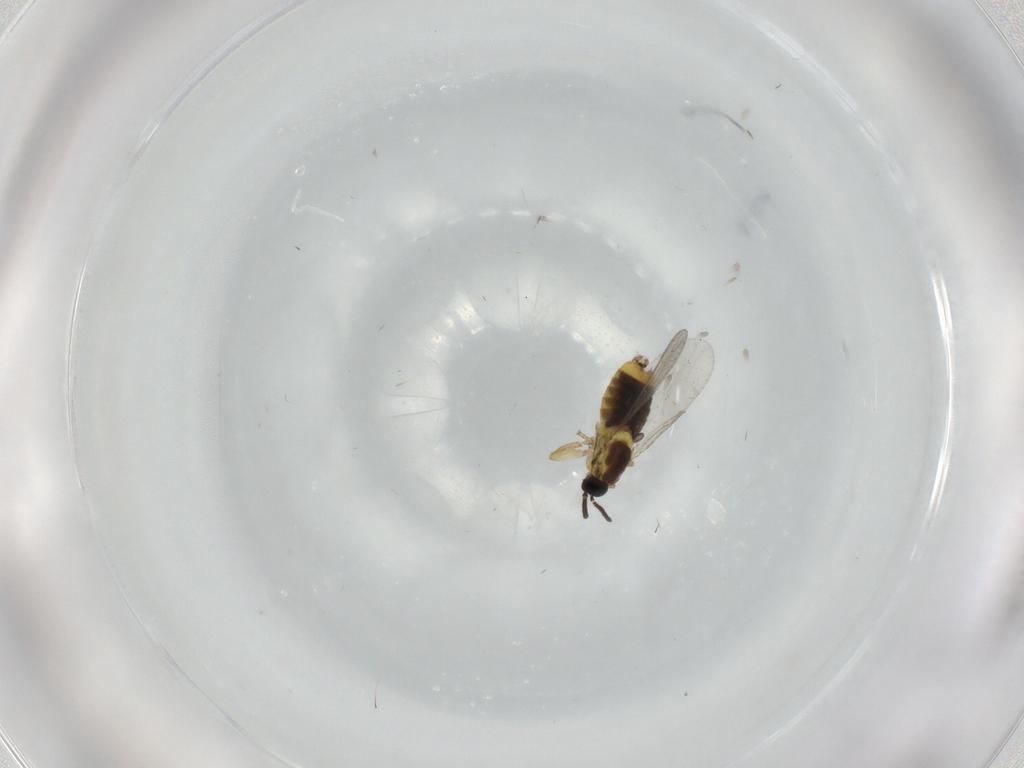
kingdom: Animalia
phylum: Arthropoda
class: Insecta
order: Diptera
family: Scatopsidae
